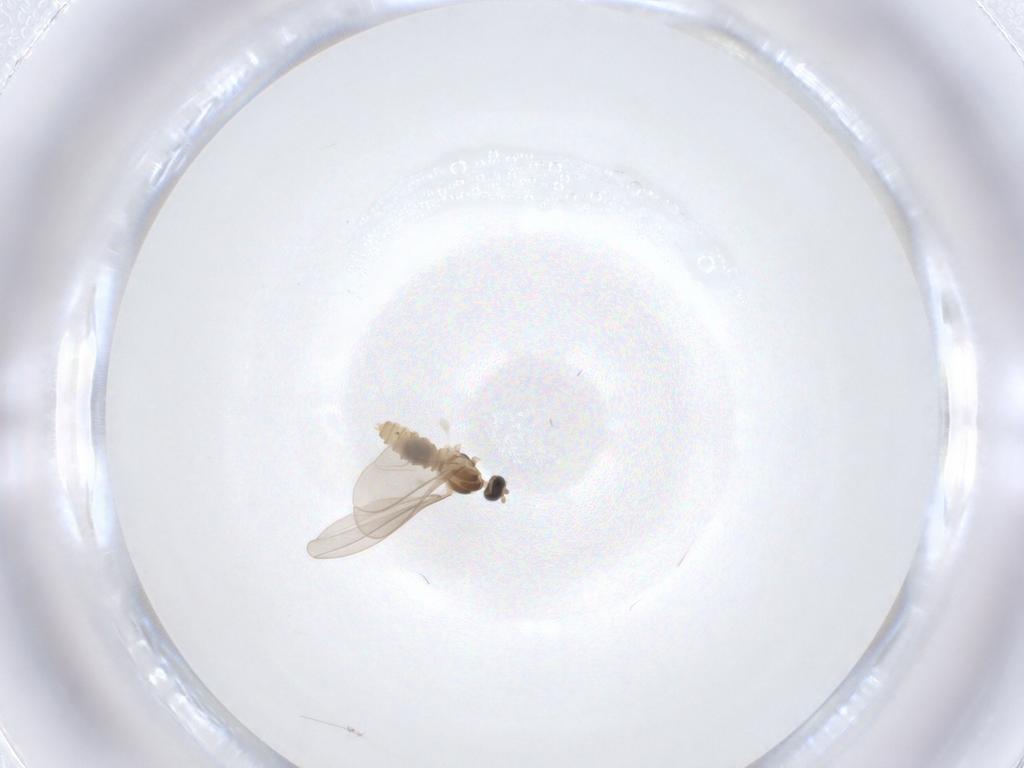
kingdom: Animalia
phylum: Arthropoda
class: Insecta
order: Diptera
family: Cecidomyiidae
